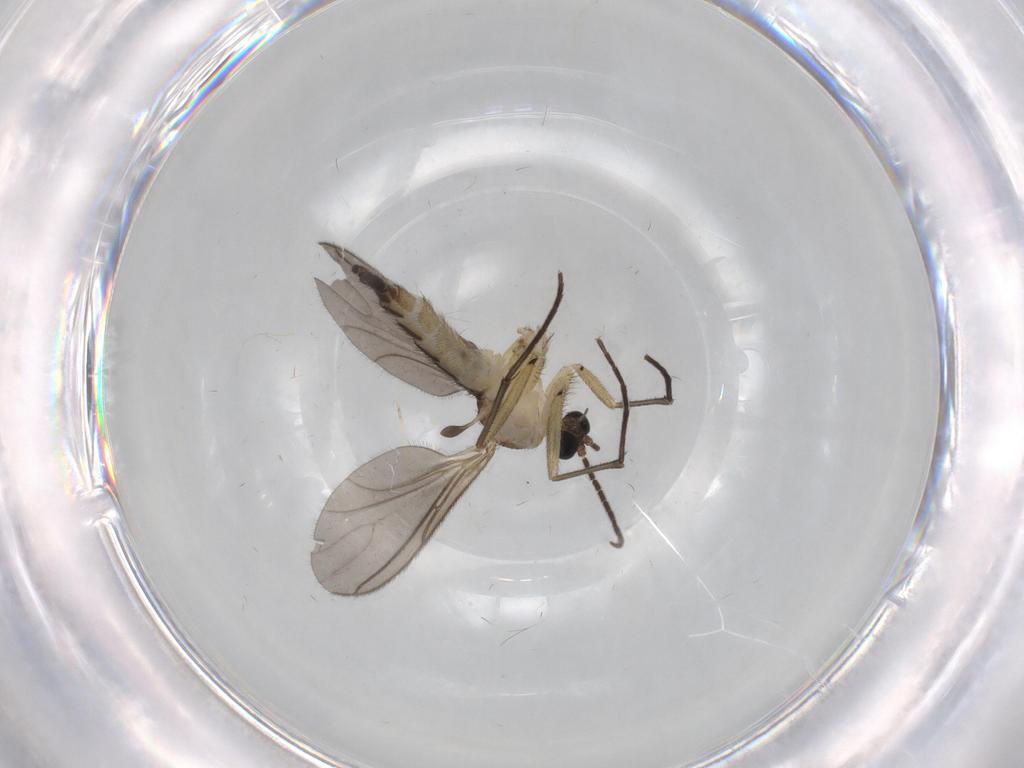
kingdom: Animalia
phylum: Arthropoda
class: Insecta
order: Diptera
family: Cecidomyiidae
